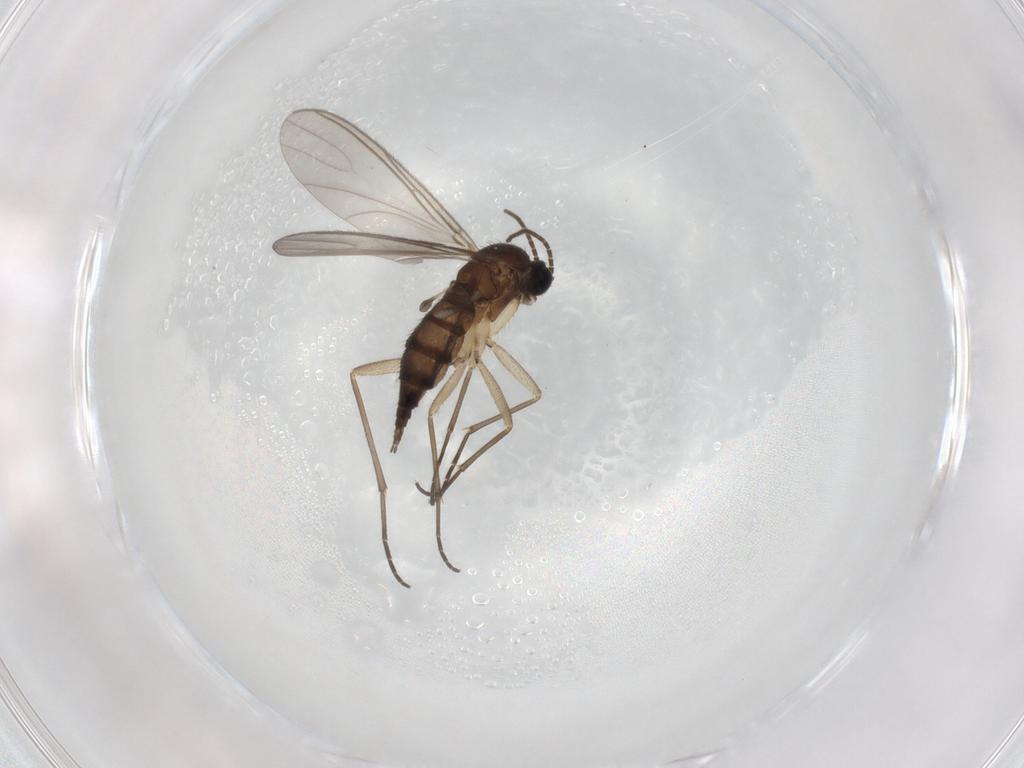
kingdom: Animalia
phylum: Arthropoda
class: Insecta
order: Diptera
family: Sciaridae
